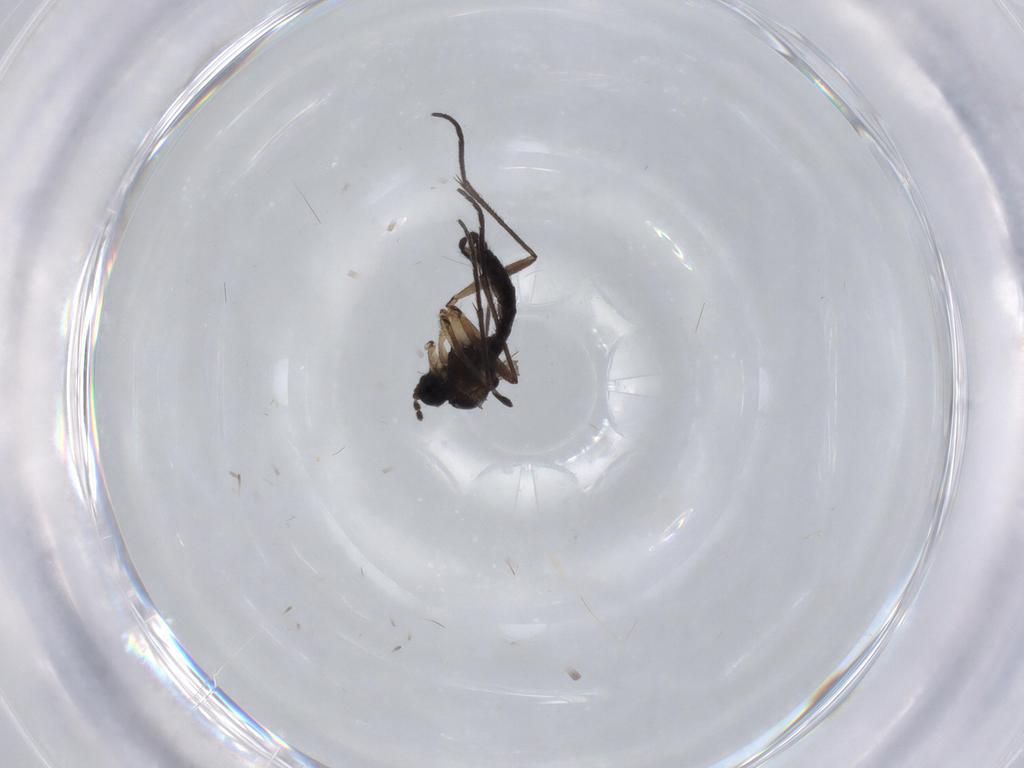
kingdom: Animalia
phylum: Arthropoda
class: Insecta
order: Diptera
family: Sciaridae
